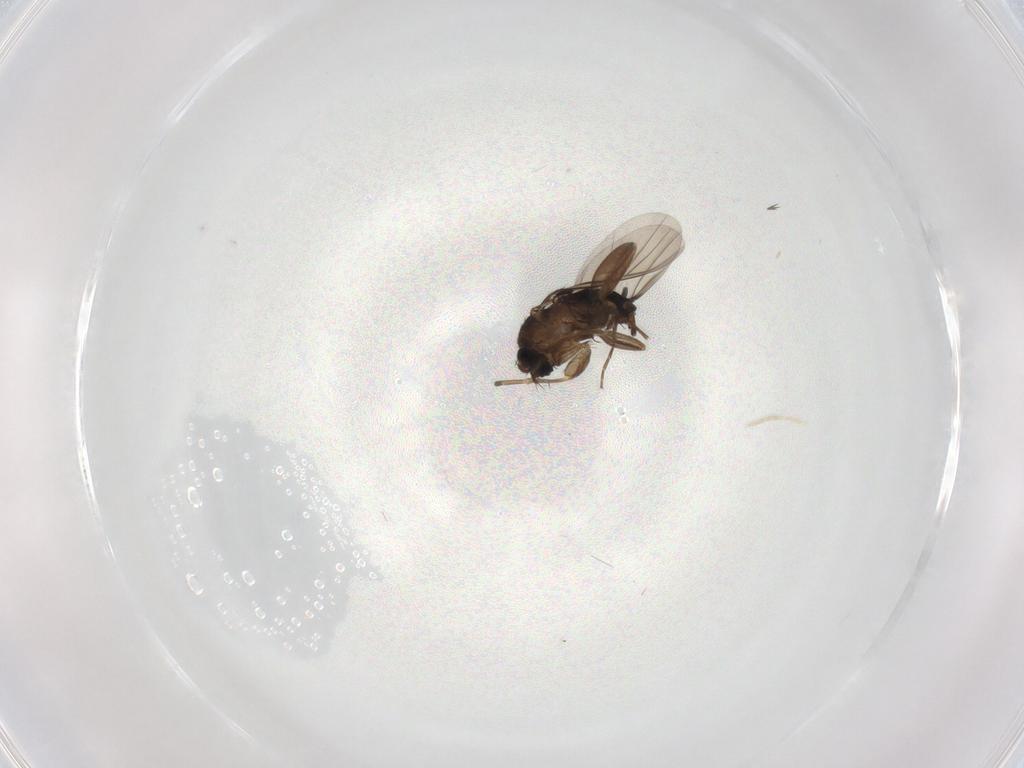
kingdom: Animalia
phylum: Arthropoda
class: Insecta
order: Diptera
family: Phoridae
